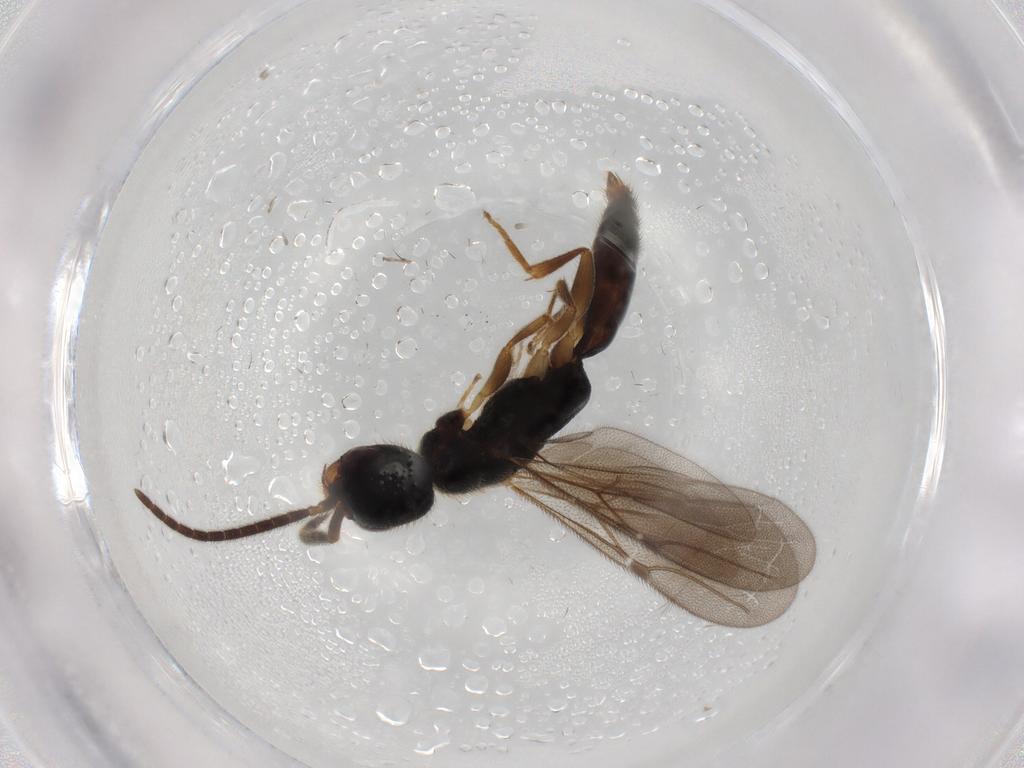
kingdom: Animalia
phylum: Arthropoda
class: Insecta
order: Hymenoptera
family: Bethylidae
